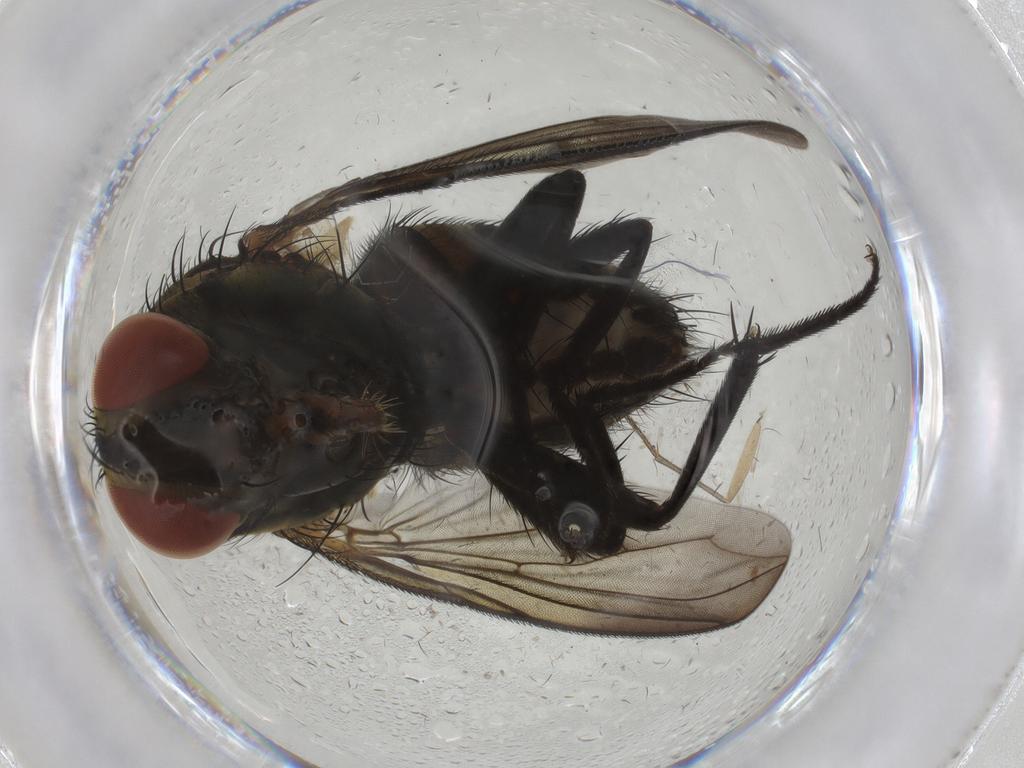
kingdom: Animalia
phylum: Arthropoda
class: Insecta
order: Diptera
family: Sarcophagidae
